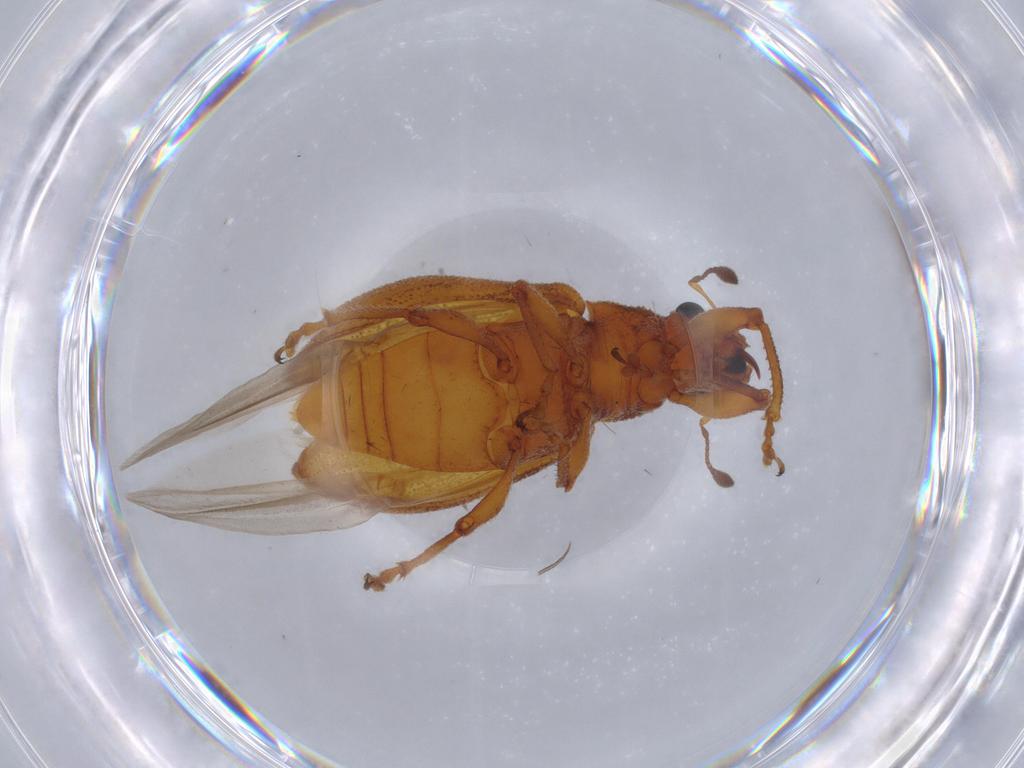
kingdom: Animalia
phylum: Arthropoda
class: Insecta
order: Coleoptera
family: Curculionidae
